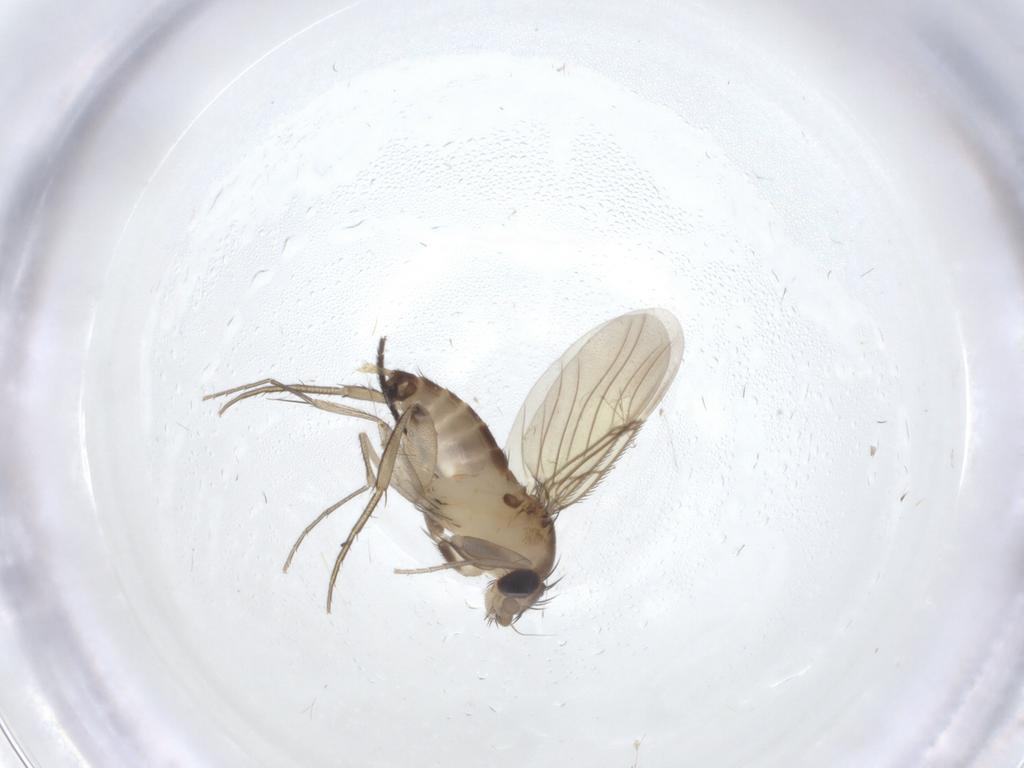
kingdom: Animalia
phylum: Arthropoda
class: Insecta
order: Diptera
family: Sciaridae
